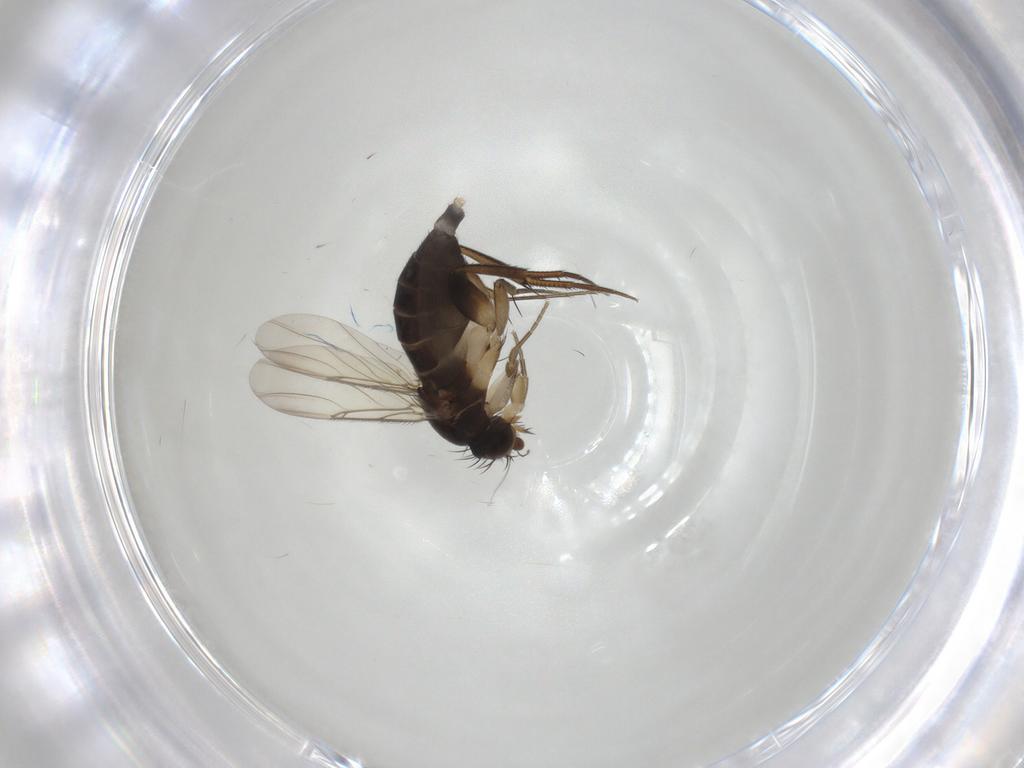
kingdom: Animalia
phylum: Arthropoda
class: Insecta
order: Diptera
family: Phoridae
